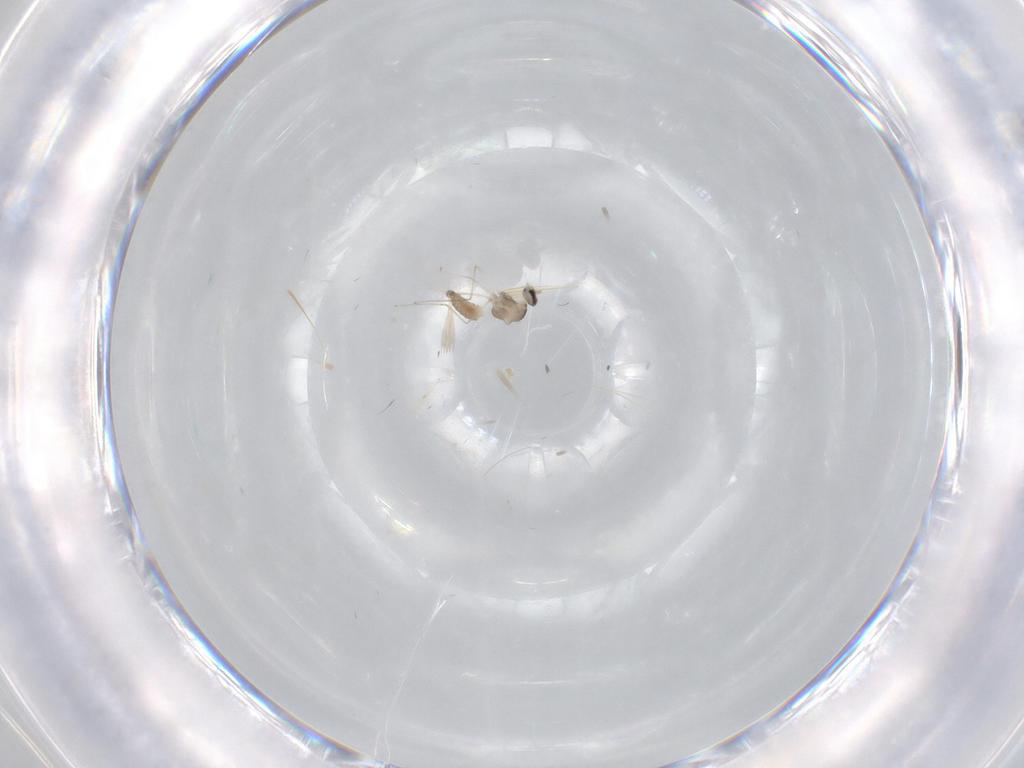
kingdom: Animalia
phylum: Arthropoda
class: Insecta
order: Diptera
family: Cecidomyiidae
